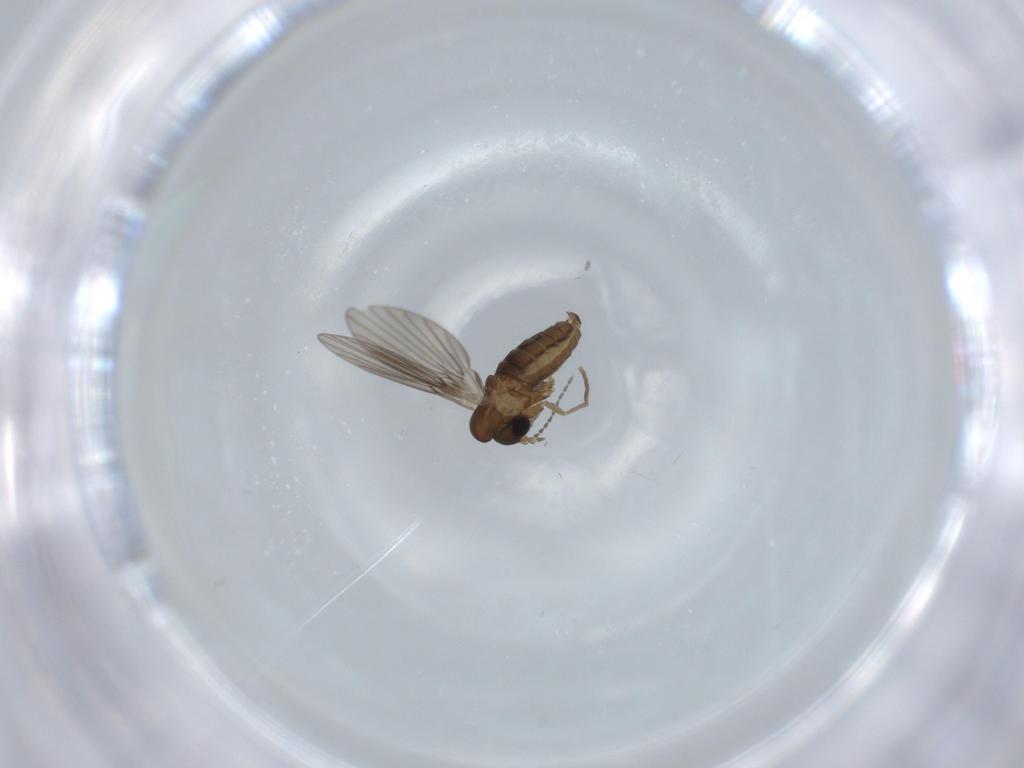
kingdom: Animalia
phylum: Arthropoda
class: Insecta
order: Diptera
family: Psychodidae
